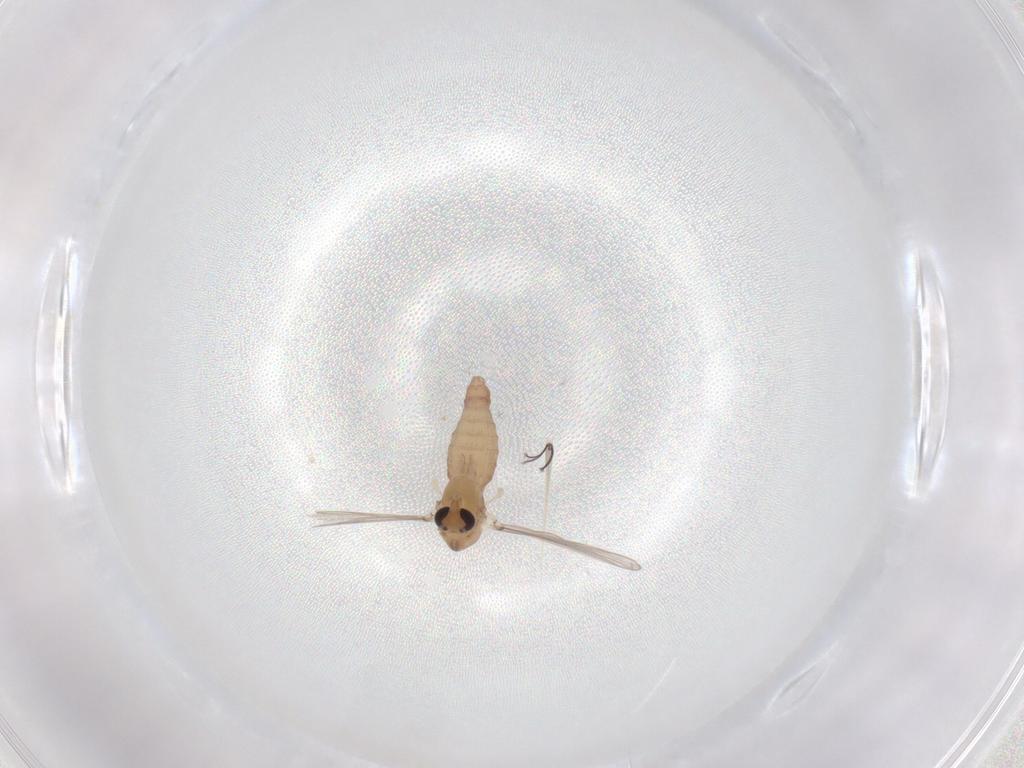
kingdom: Animalia
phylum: Arthropoda
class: Insecta
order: Diptera
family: Chironomidae
